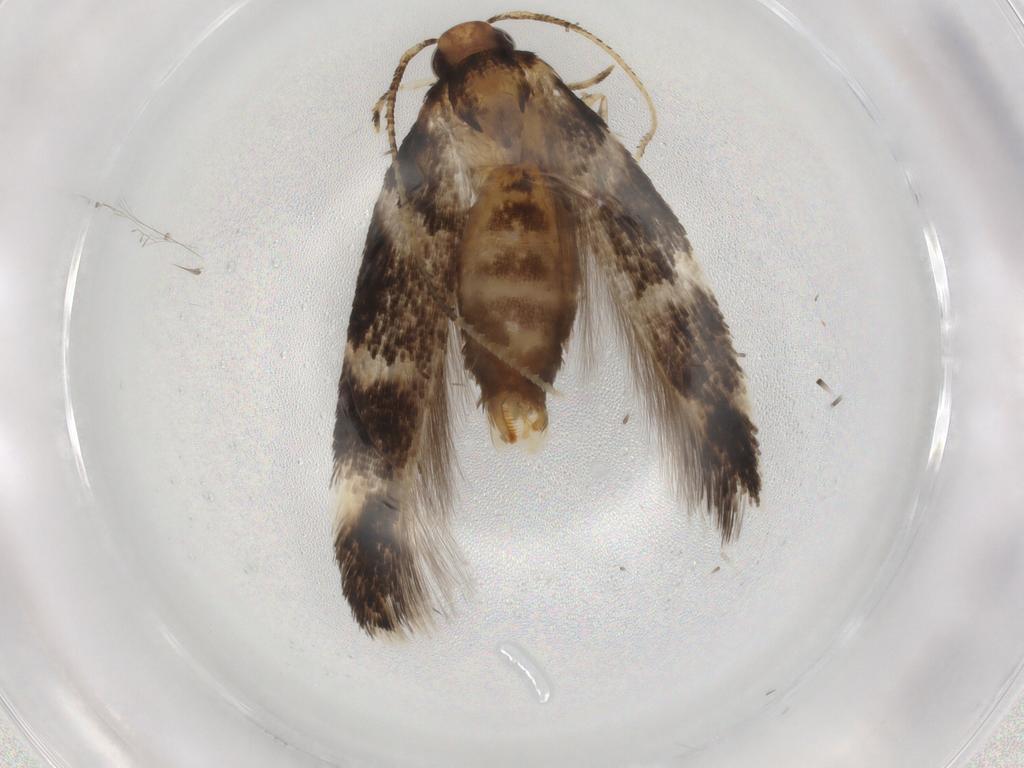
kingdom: Animalia
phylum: Arthropoda
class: Insecta
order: Lepidoptera
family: Cosmopterigidae
